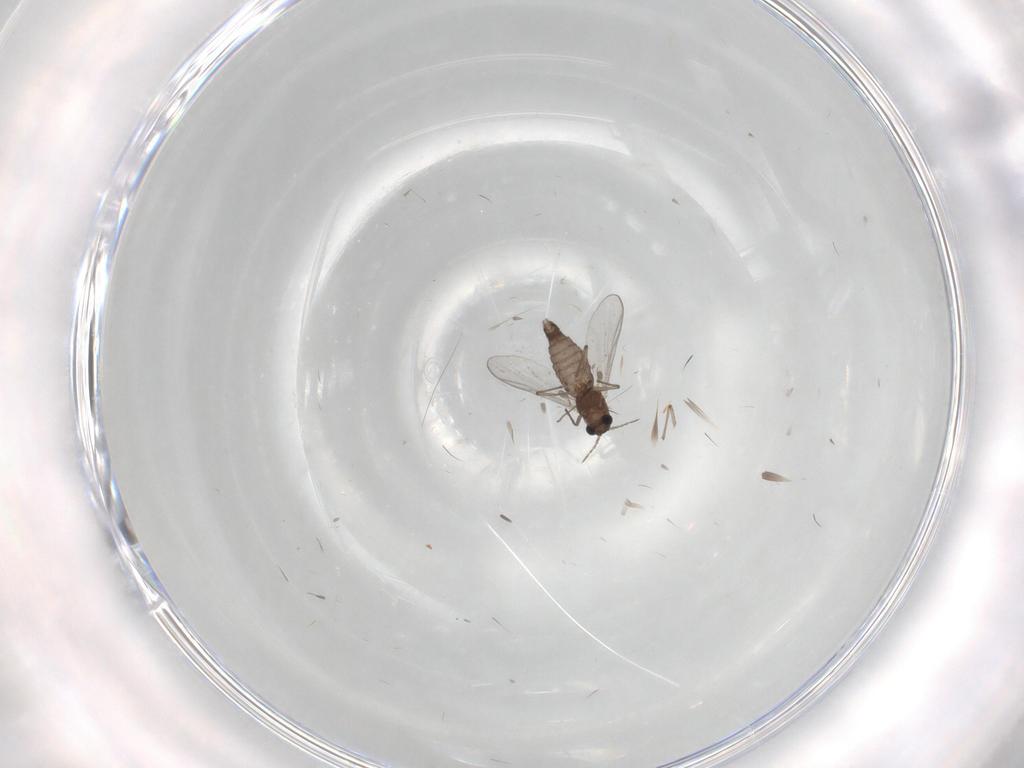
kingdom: Animalia
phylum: Arthropoda
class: Insecta
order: Diptera
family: Chironomidae
